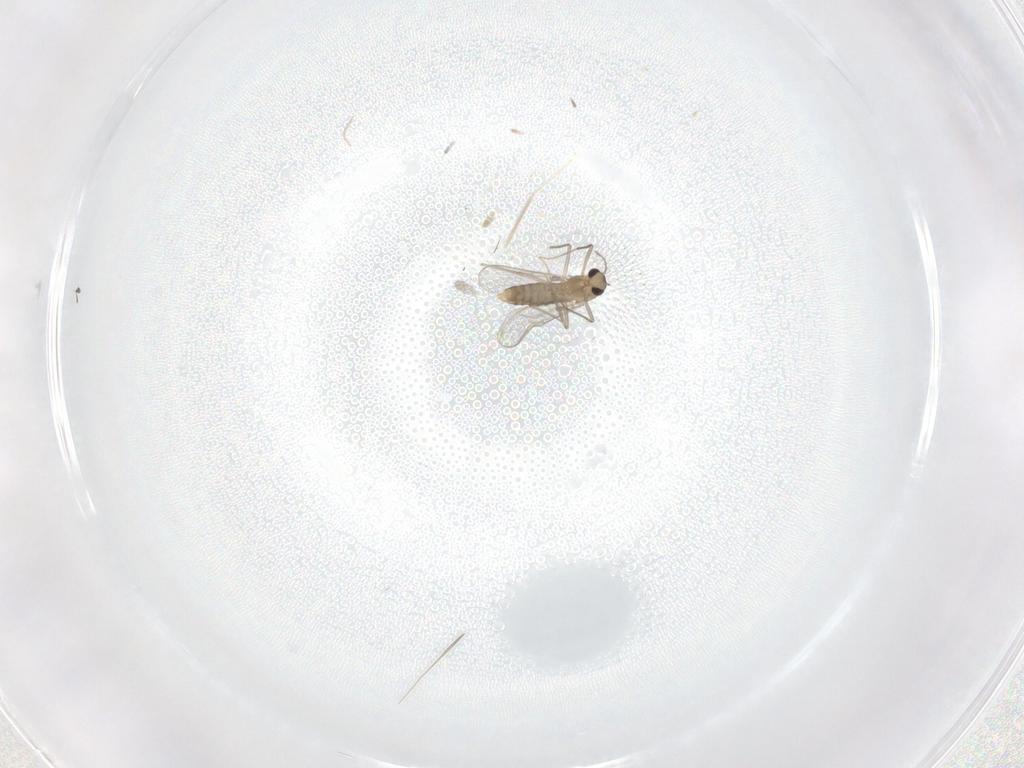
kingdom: Animalia
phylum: Arthropoda
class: Insecta
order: Diptera
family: Chironomidae
